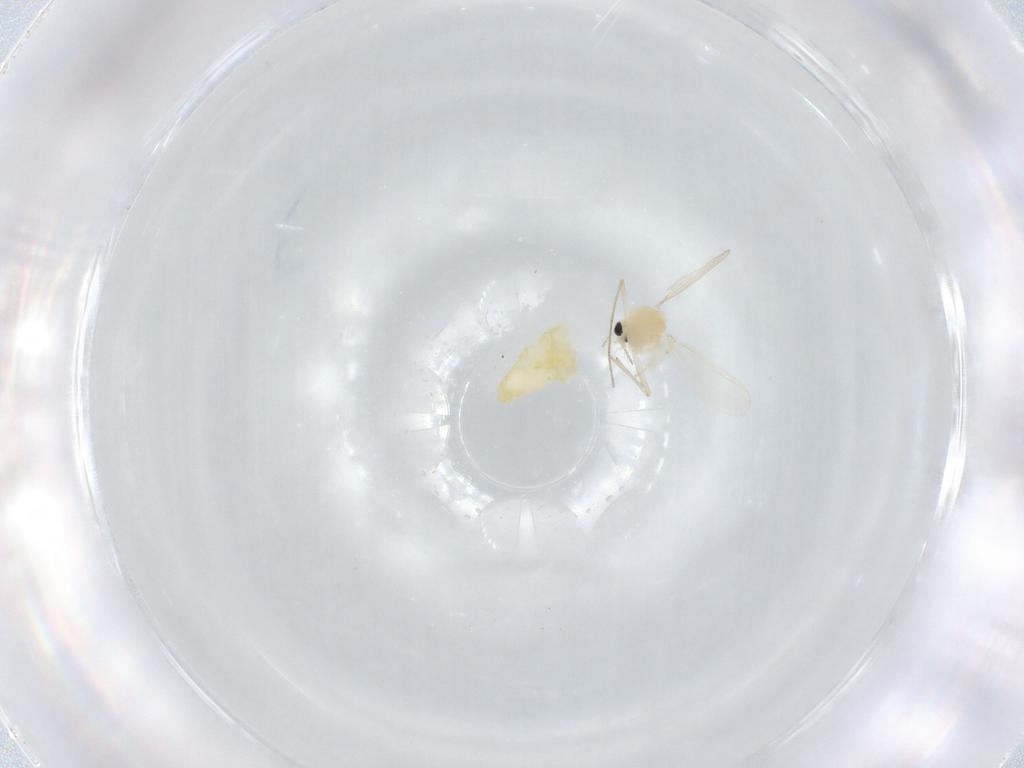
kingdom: Animalia
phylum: Arthropoda
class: Insecta
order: Diptera
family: Chironomidae
